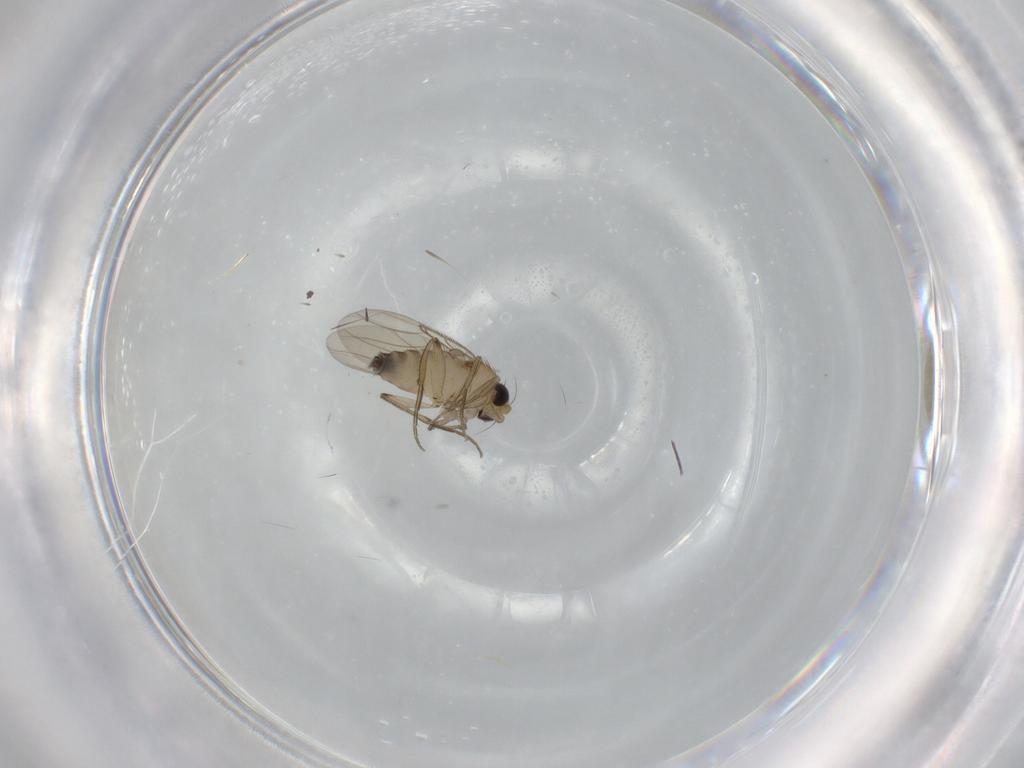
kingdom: Animalia
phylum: Arthropoda
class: Insecta
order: Diptera
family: Phoridae
